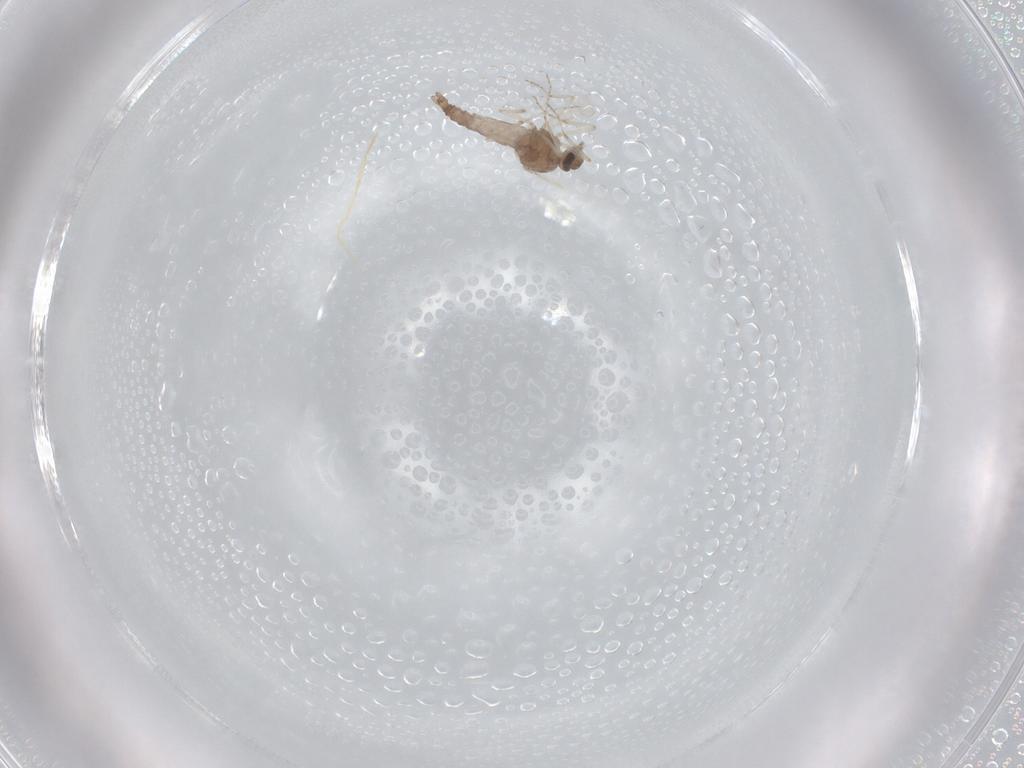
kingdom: Animalia
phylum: Arthropoda
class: Insecta
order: Diptera
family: Ceratopogonidae
